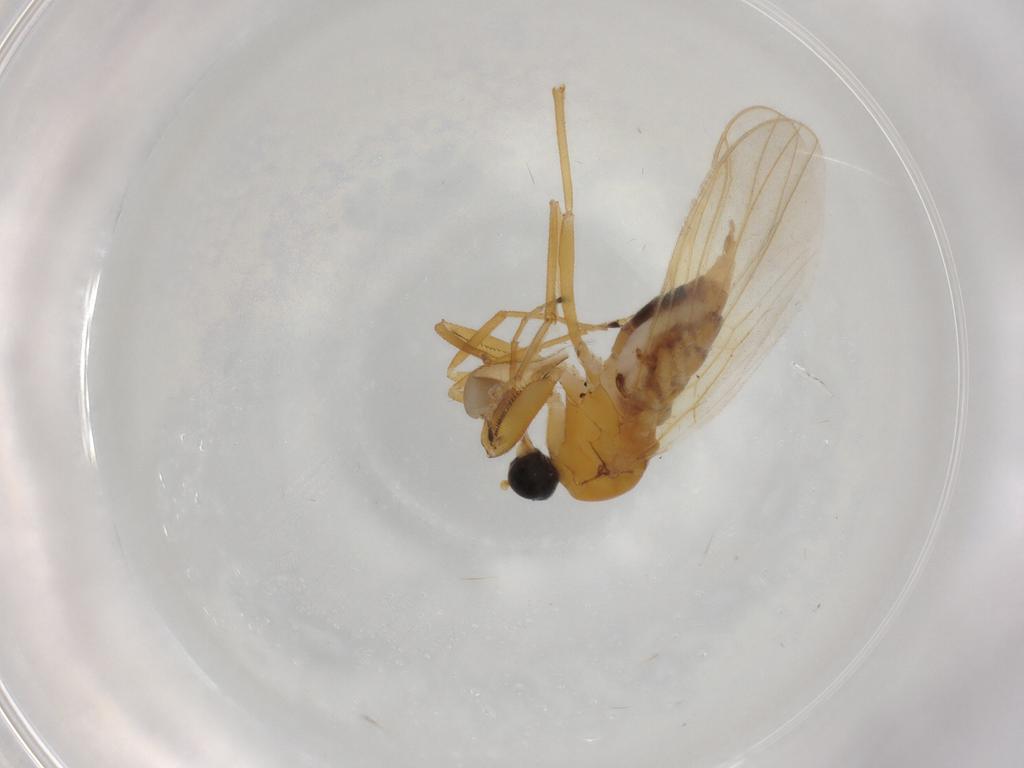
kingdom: Animalia
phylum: Arthropoda
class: Insecta
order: Diptera
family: Hybotidae
